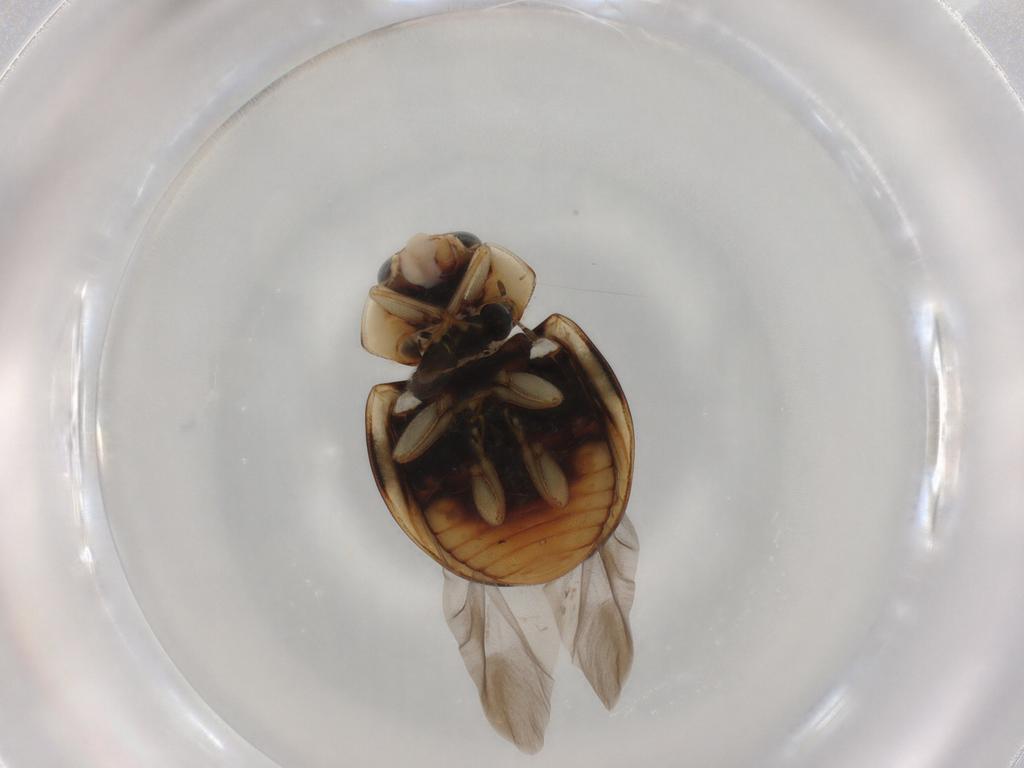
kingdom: Animalia
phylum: Arthropoda
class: Insecta
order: Coleoptera
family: Coccinellidae
